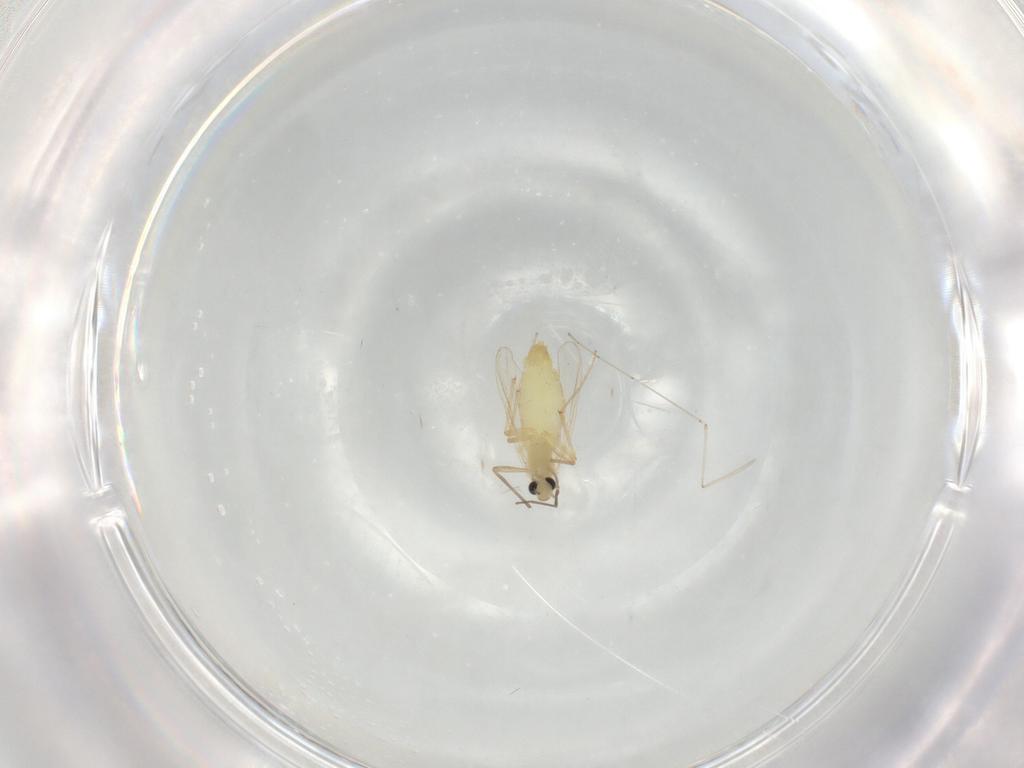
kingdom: Animalia
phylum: Arthropoda
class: Insecta
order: Diptera
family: Chironomidae
